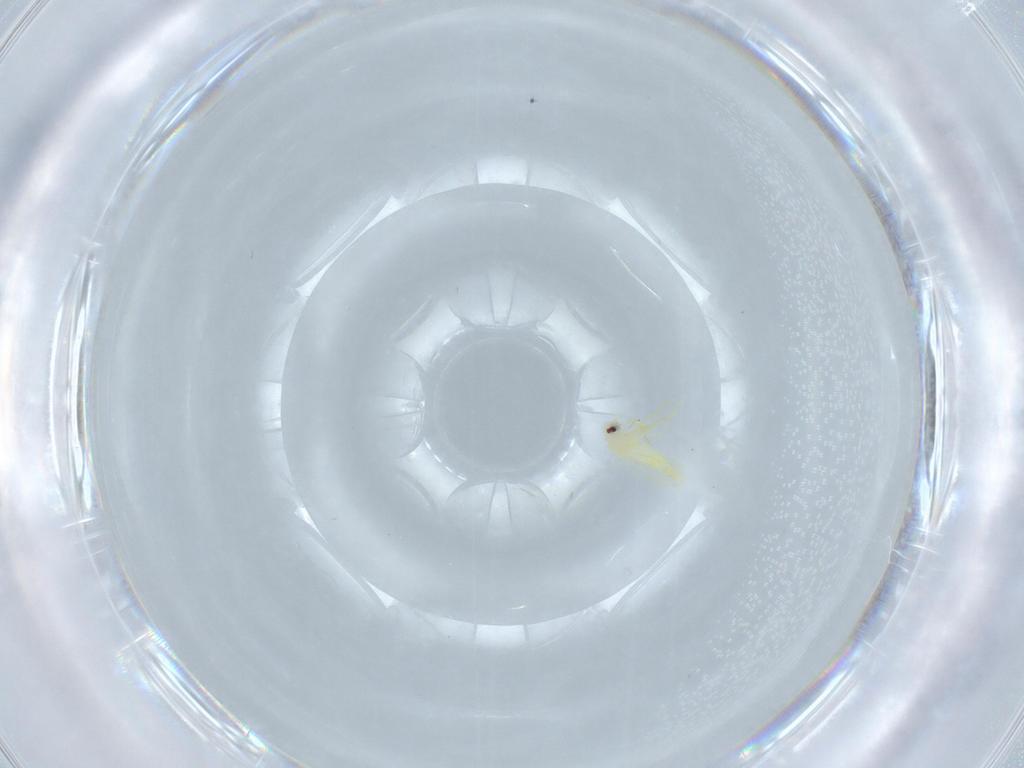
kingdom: Animalia
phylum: Arthropoda
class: Insecta
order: Hemiptera
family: Aleyrodidae
